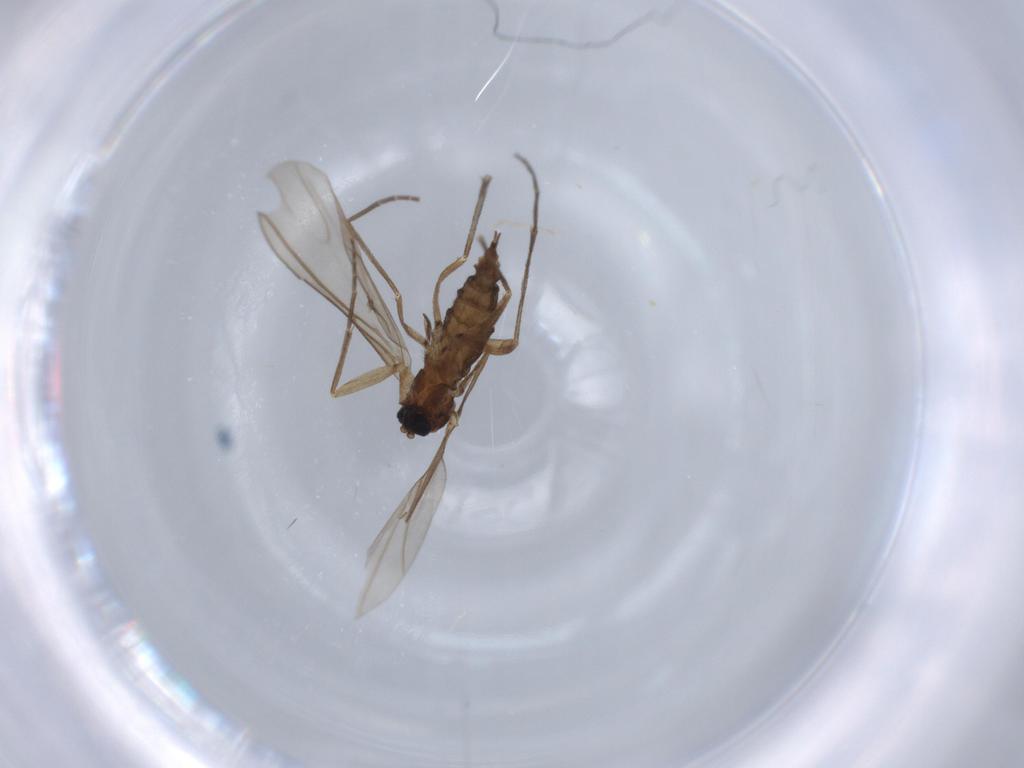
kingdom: Animalia
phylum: Arthropoda
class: Insecta
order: Diptera
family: Sciaridae
